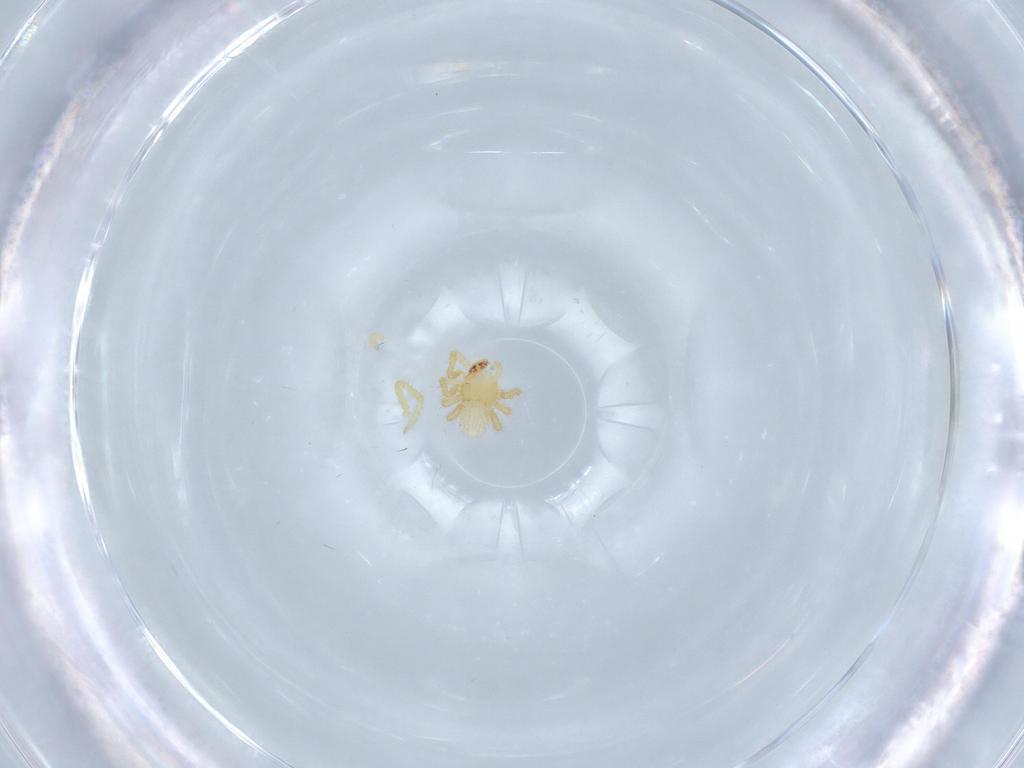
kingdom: Animalia
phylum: Arthropoda
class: Arachnida
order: Araneae
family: Theridiidae
